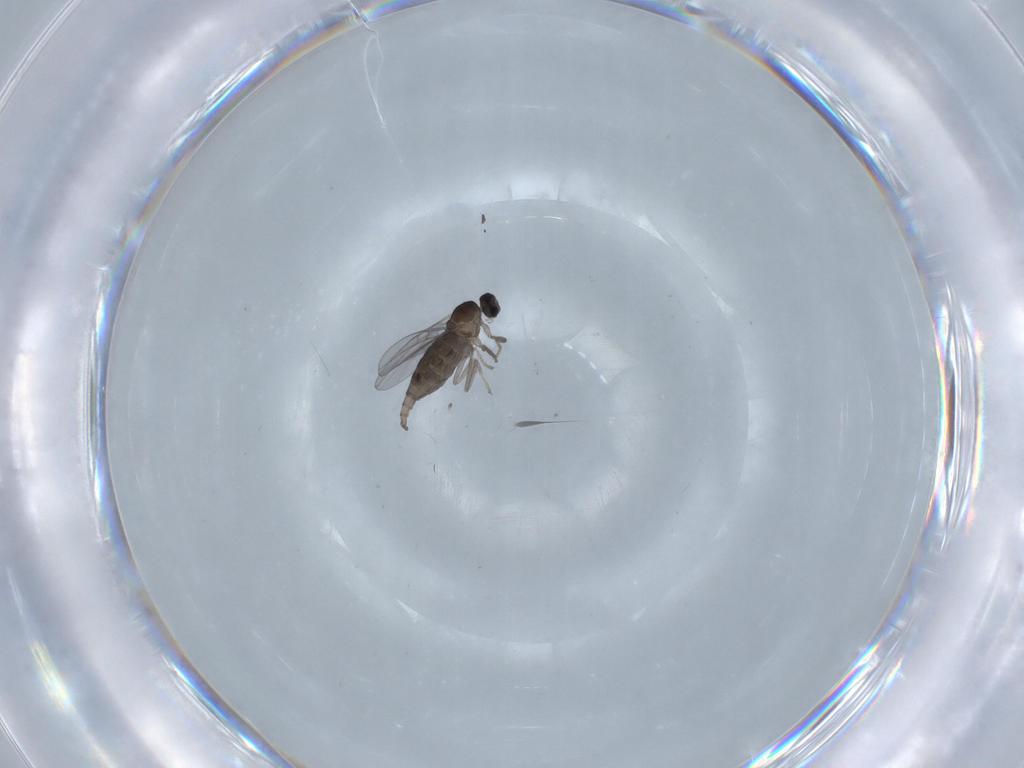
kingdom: Animalia
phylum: Arthropoda
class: Insecta
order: Diptera
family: Cecidomyiidae
